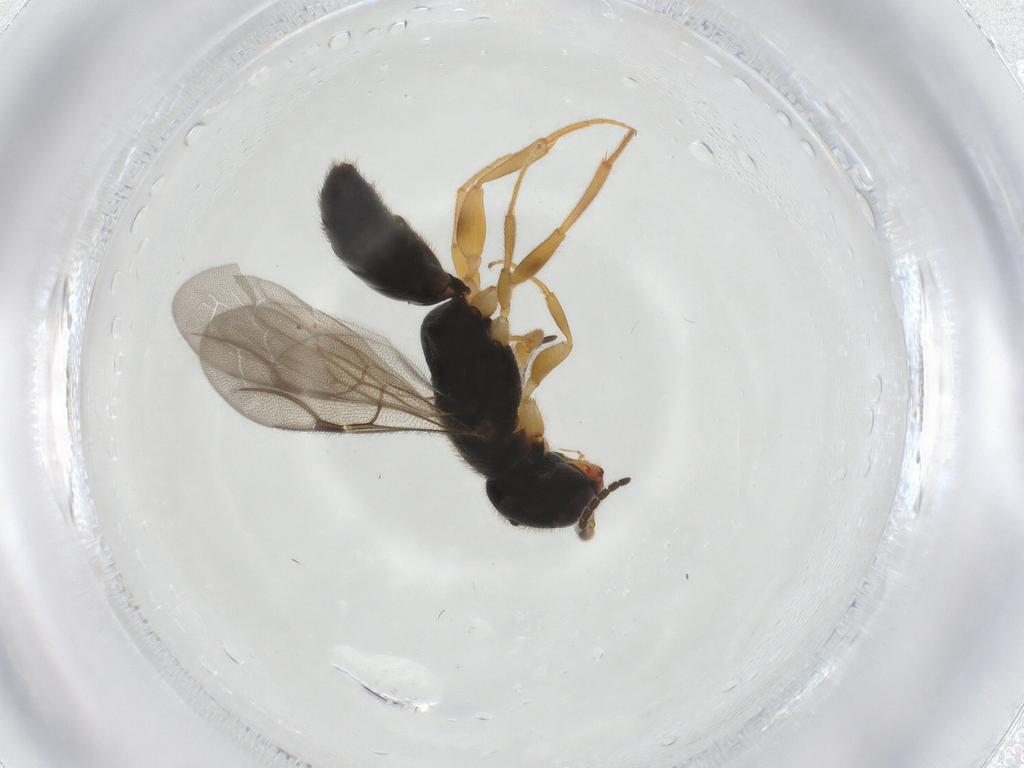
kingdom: Animalia
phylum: Arthropoda
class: Insecta
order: Hymenoptera
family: Bethylidae
